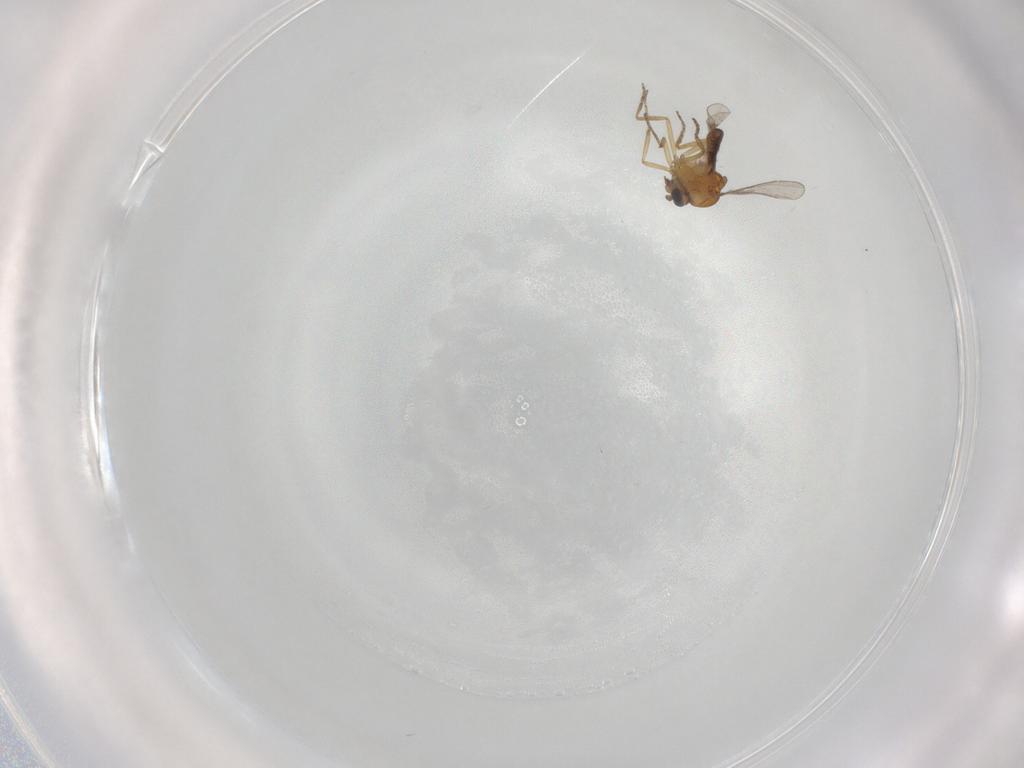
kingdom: Animalia
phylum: Arthropoda
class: Insecta
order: Diptera
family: Ceratopogonidae
